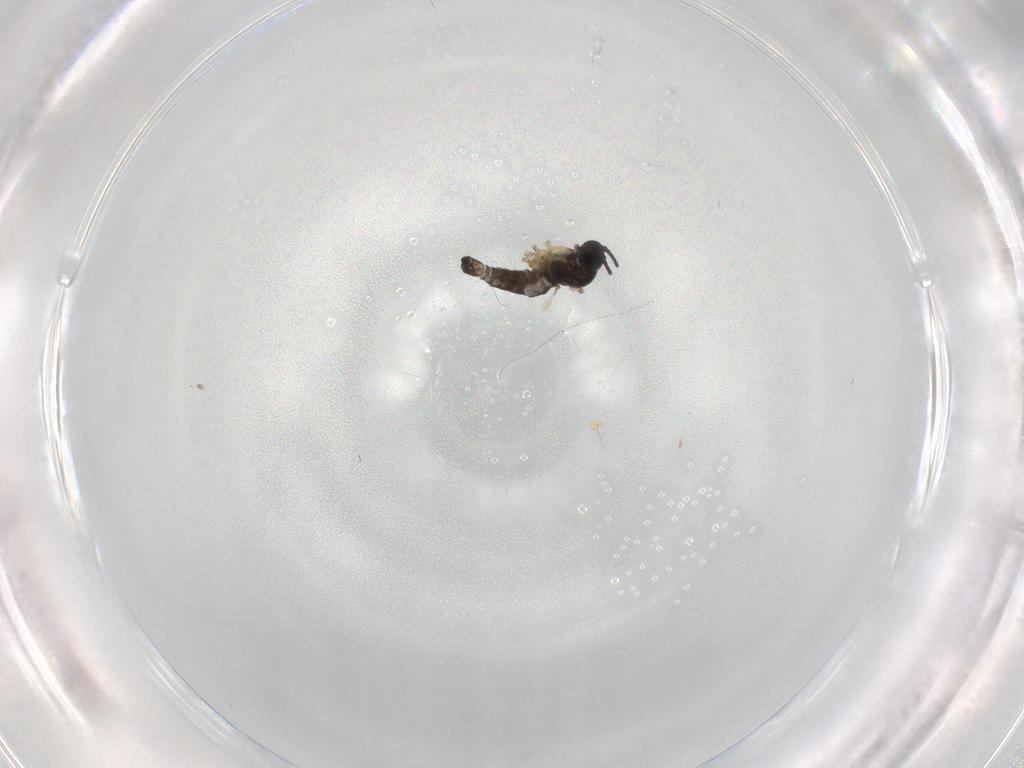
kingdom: Animalia
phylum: Arthropoda
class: Insecta
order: Diptera
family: Sciaridae
